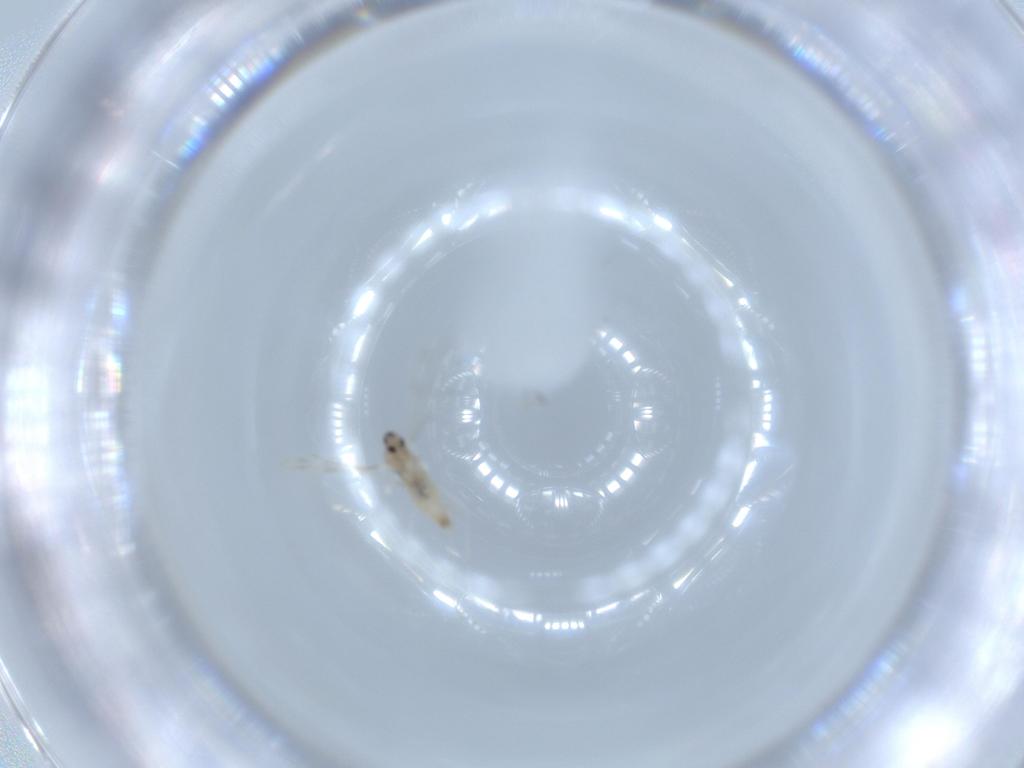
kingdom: Animalia
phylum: Arthropoda
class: Insecta
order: Diptera
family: Cecidomyiidae
